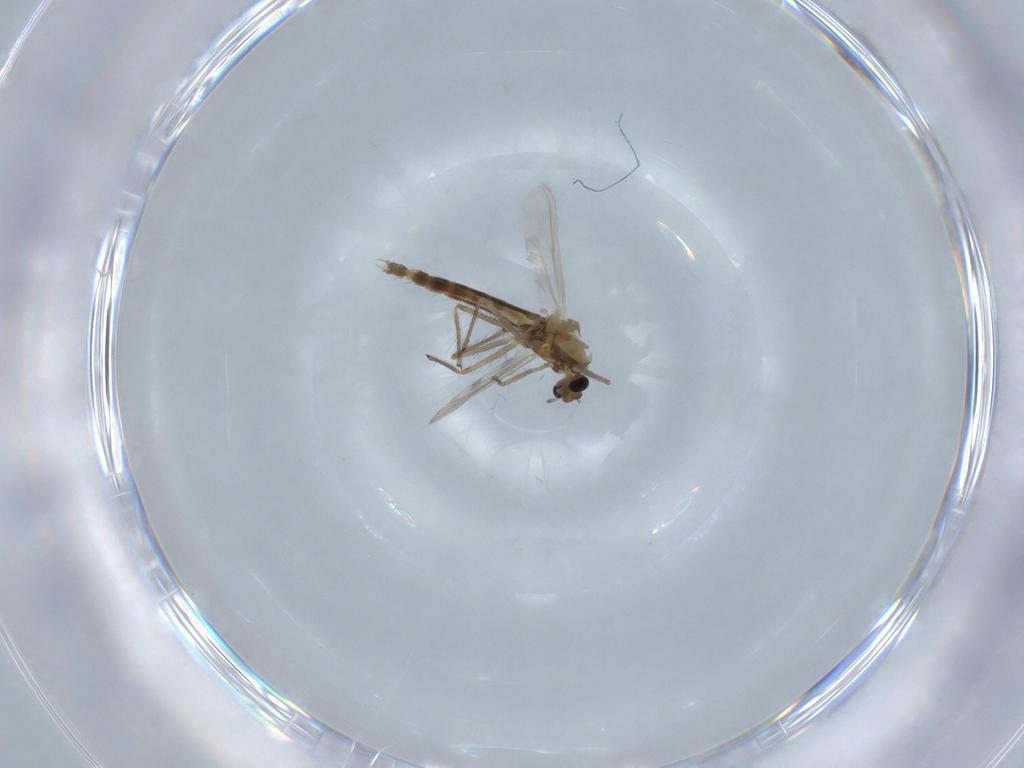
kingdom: Animalia
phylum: Arthropoda
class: Insecta
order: Diptera
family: Chironomidae
